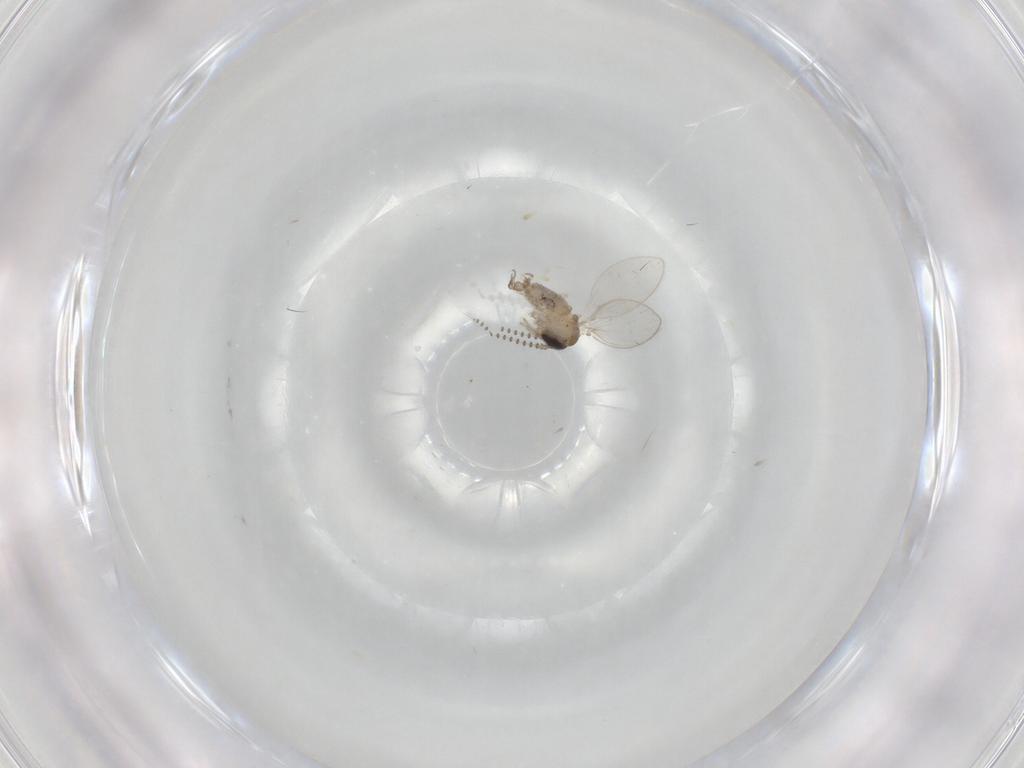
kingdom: Animalia
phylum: Arthropoda
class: Insecta
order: Diptera
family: Psychodidae
